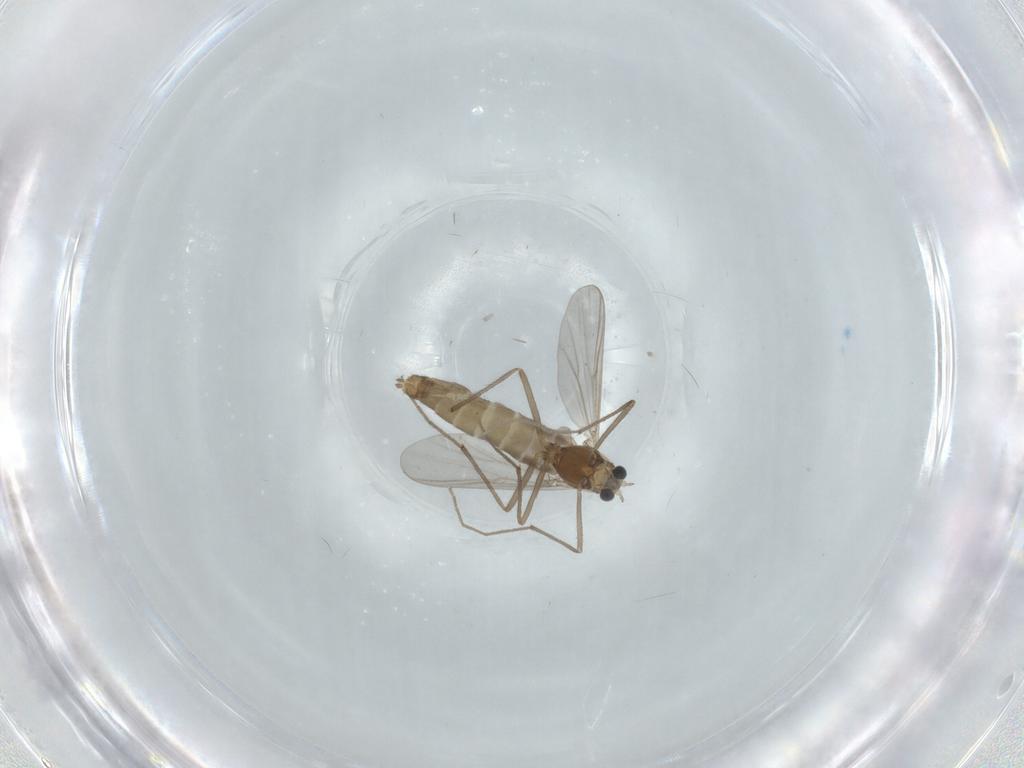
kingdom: Animalia
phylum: Arthropoda
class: Insecta
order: Diptera
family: Chironomidae
